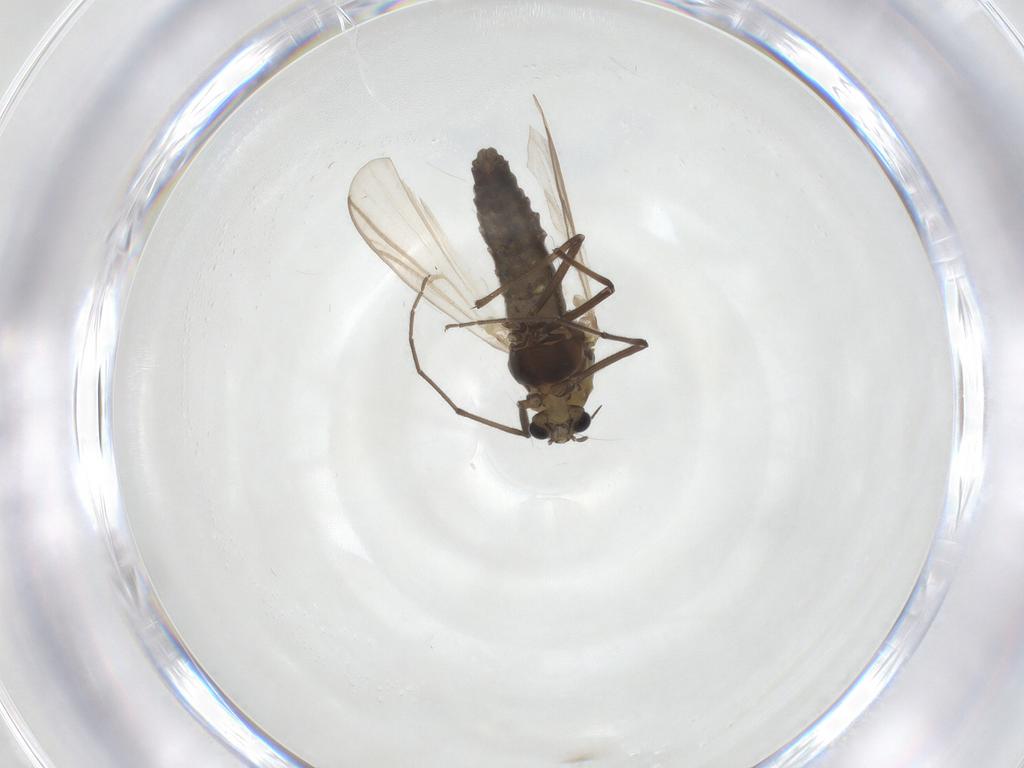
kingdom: Animalia
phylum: Arthropoda
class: Insecta
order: Diptera
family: Chironomidae
